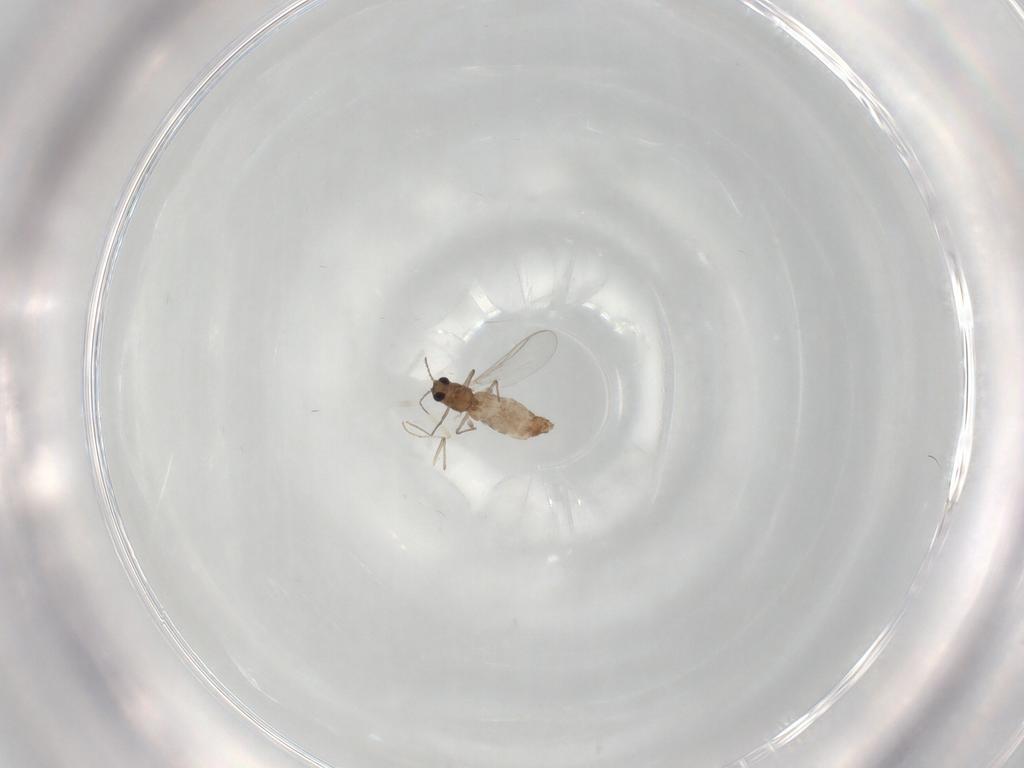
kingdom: Animalia
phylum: Arthropoda
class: Insecta
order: Diptera
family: Chironomidae
